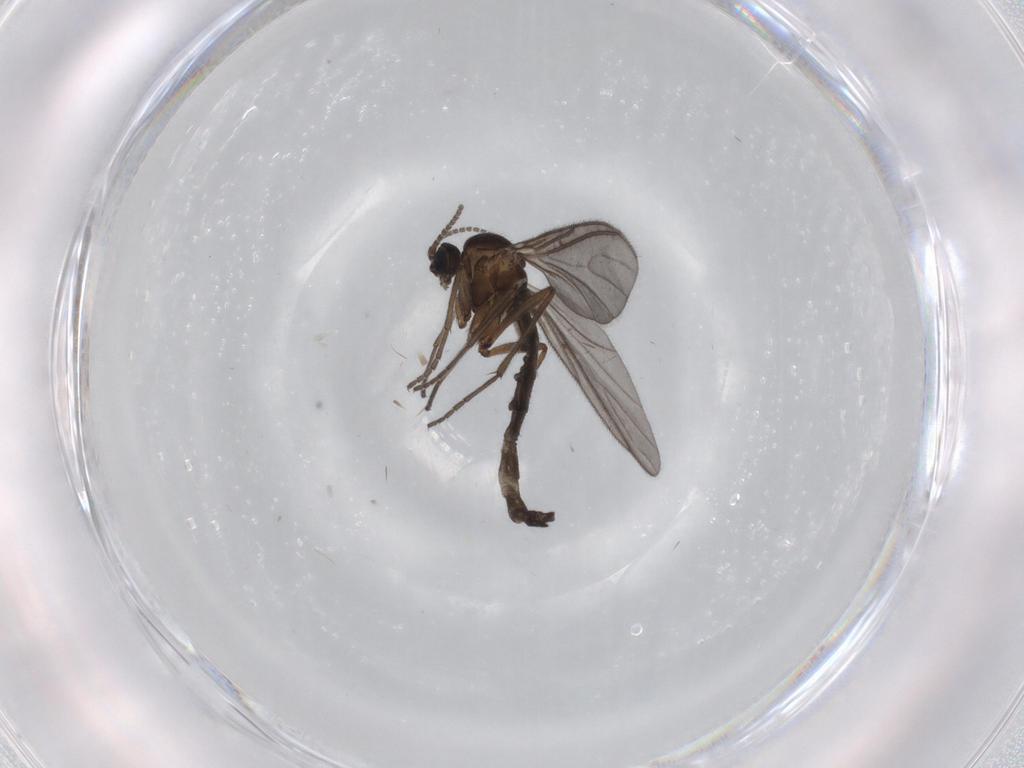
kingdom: Animalia
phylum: Arthropoda
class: Insecta
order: Diptera
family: Sciaridae
